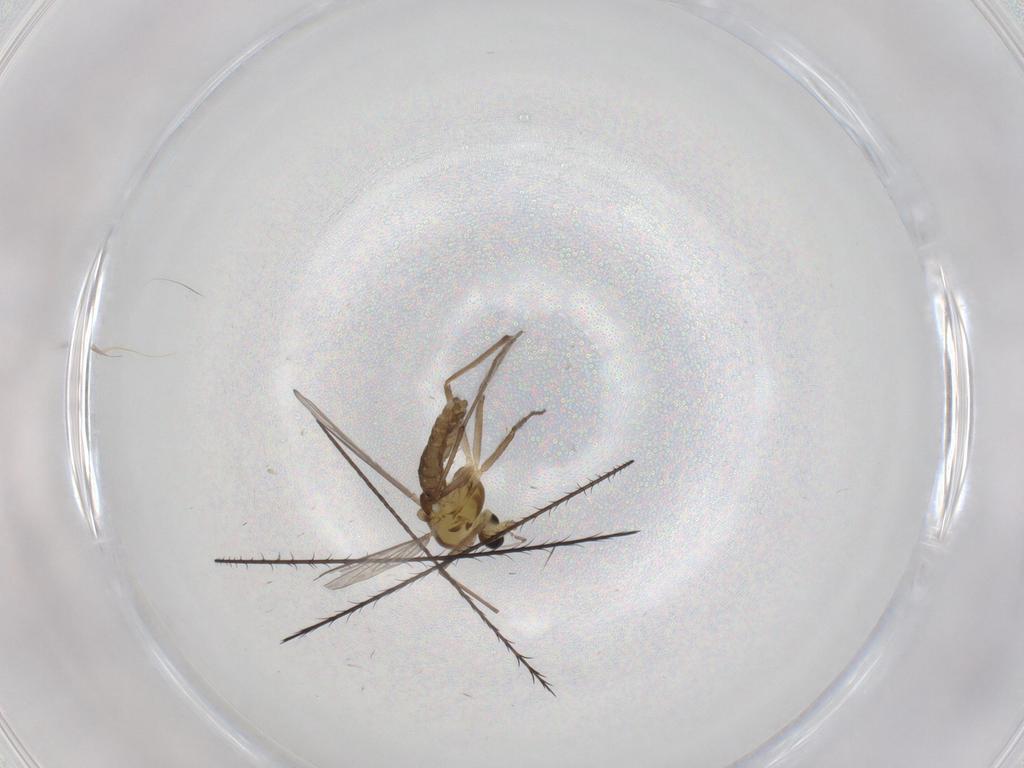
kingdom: Animalia
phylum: Arthropoda
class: Insecta
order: Diptera
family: Chironomidae
